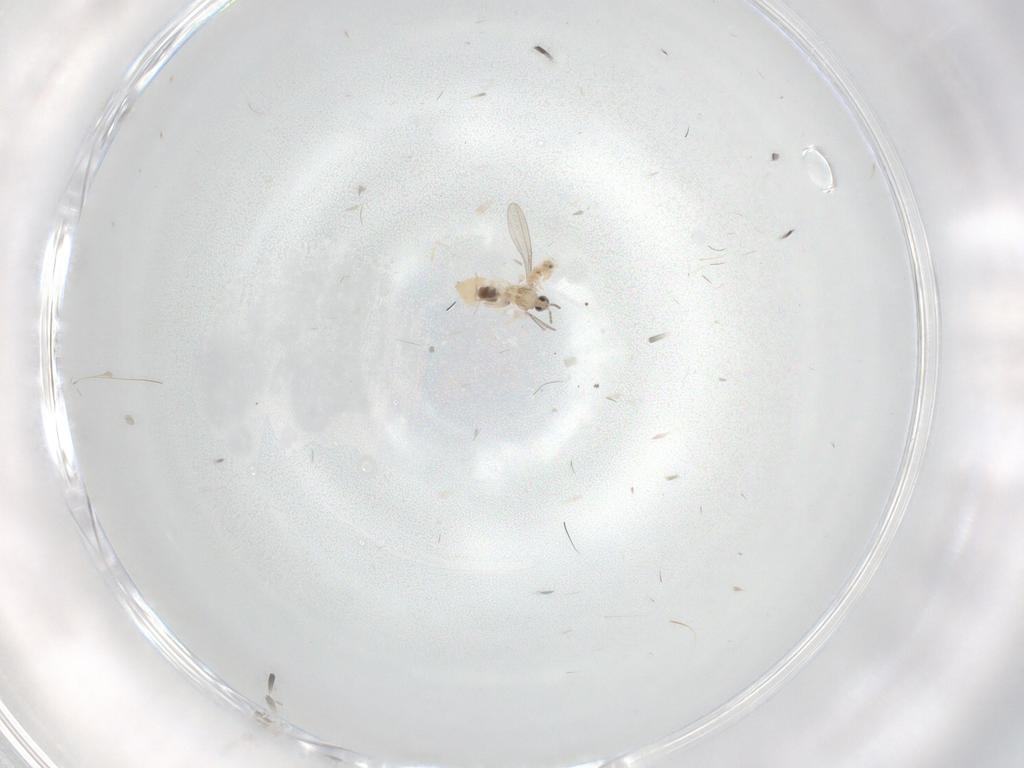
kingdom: Animalia
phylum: Arthropoda
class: Insecta
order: Diptera
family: Cecidomyiidae
